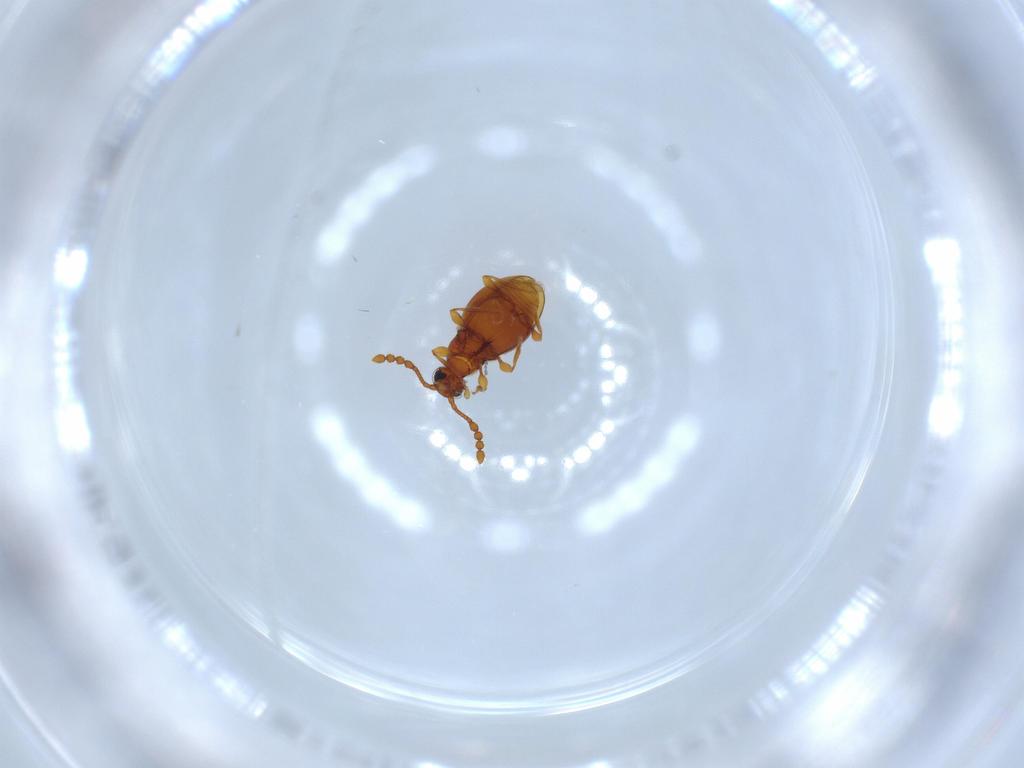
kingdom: Animalia
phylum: Arthropoda
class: Insecta
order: Coleoptera
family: Staphylinidae
